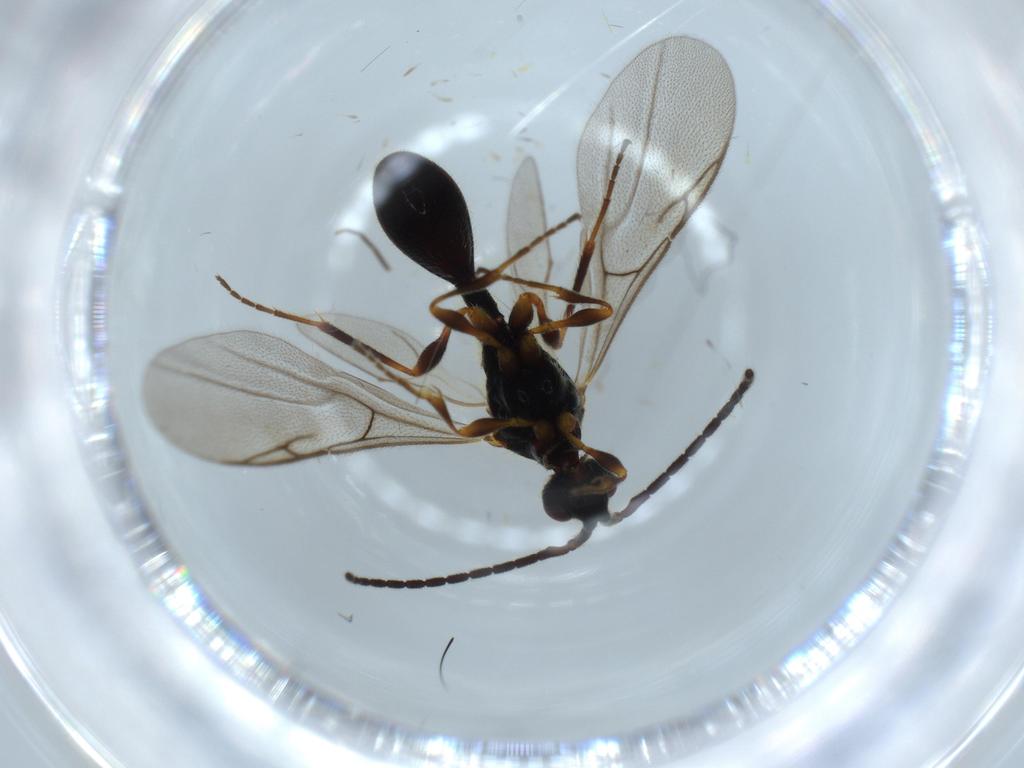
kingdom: Animalia
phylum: Arthropoda
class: Insecta
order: Hymenoptera
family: Diapriidae
